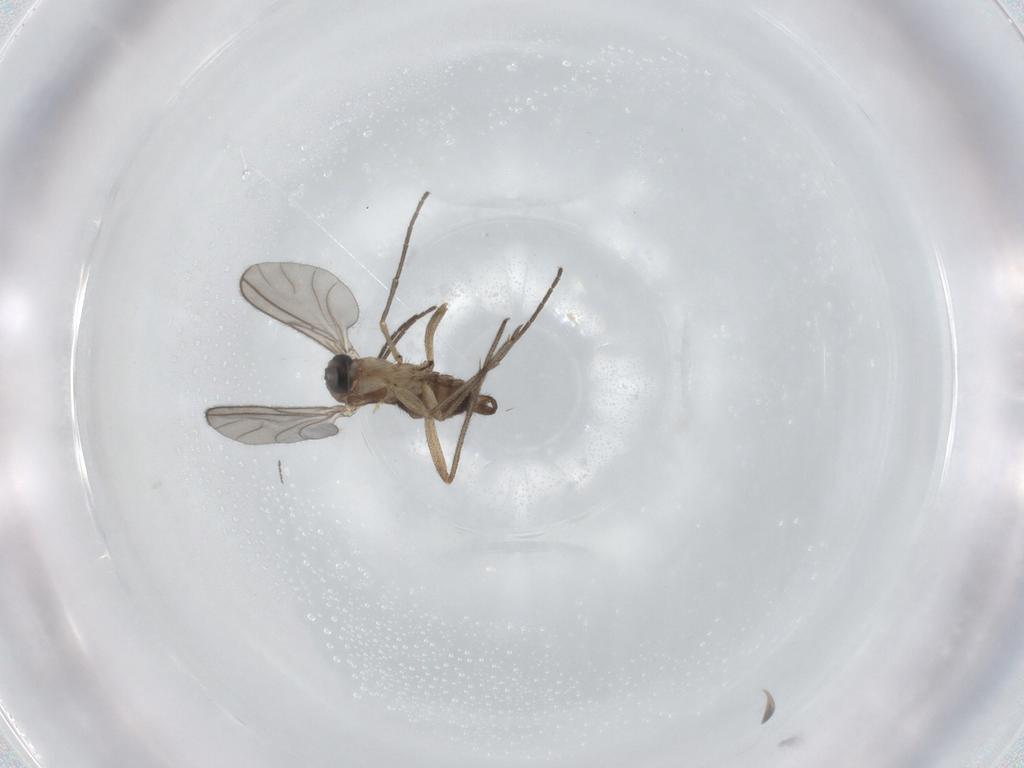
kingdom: Animalia
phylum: Arthropoda
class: Insecta
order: Diptera
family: Sciaridae
